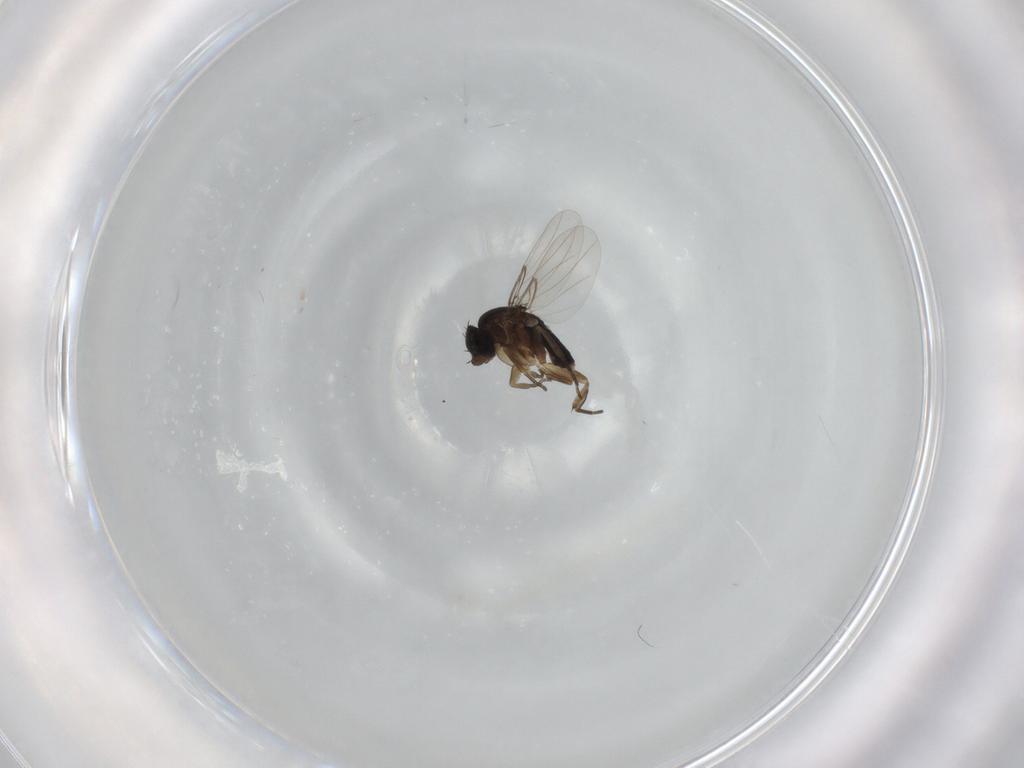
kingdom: Animalia
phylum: Arthropoda
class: Insecta
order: Diptera
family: Phoridae
